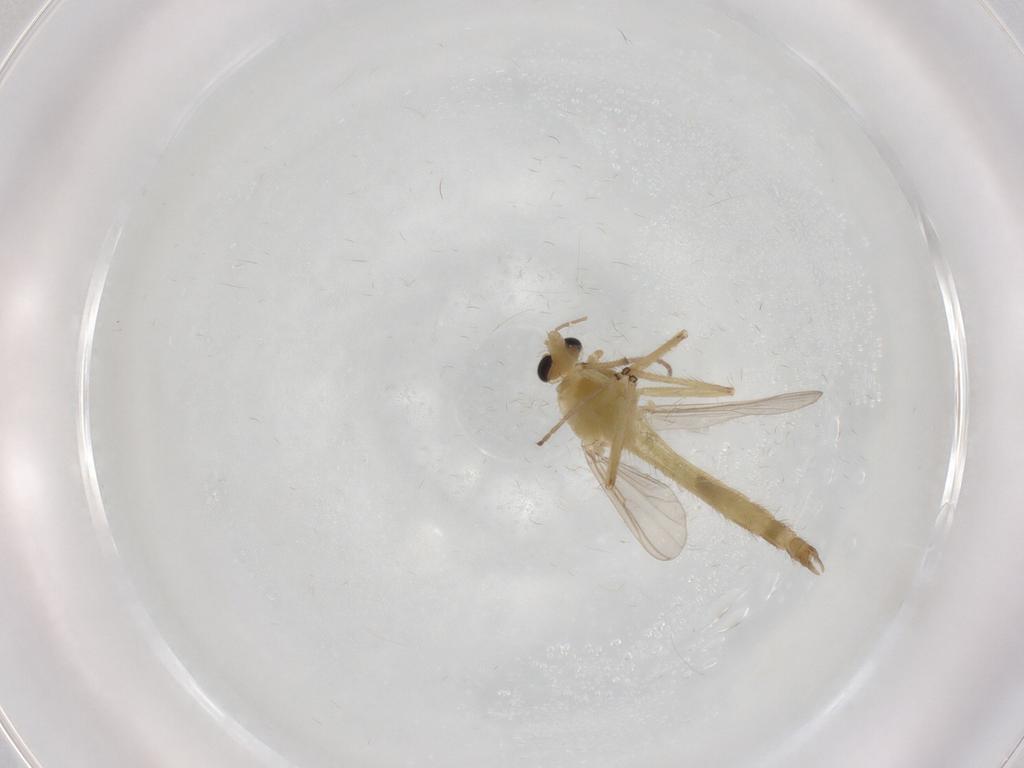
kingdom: Animalia
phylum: Arthropoda
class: Insecta
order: Diptera
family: Chironomidae
